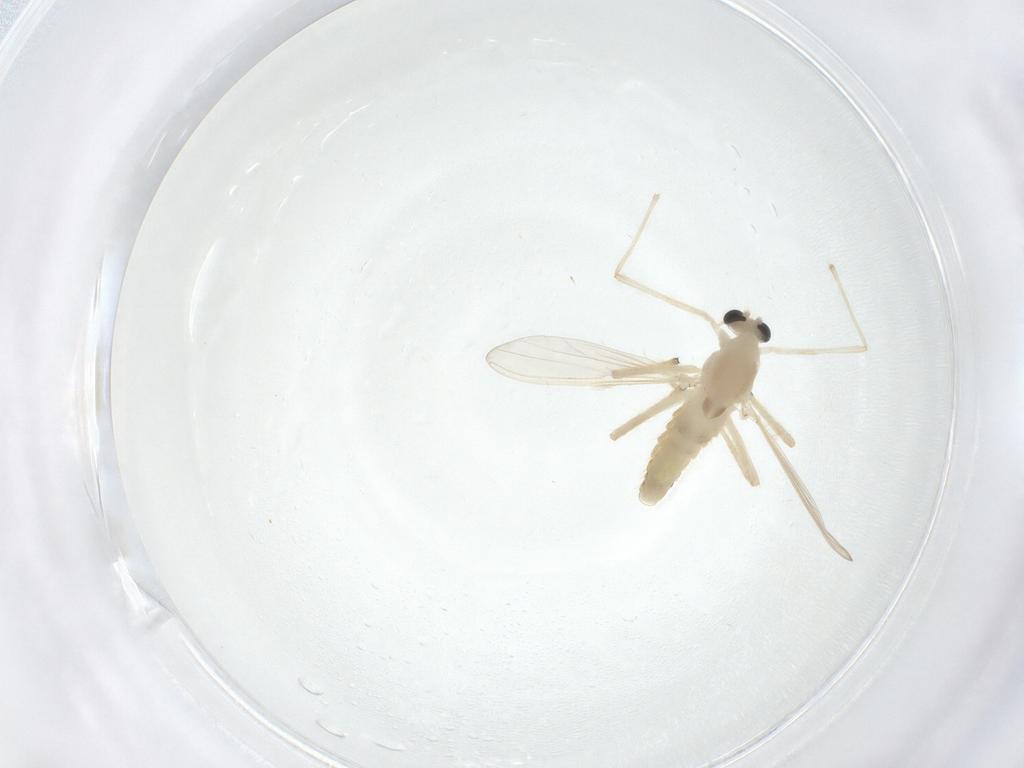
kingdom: Animalia
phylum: Arthropoda
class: Insecta
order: Diptera
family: Chironomidae
